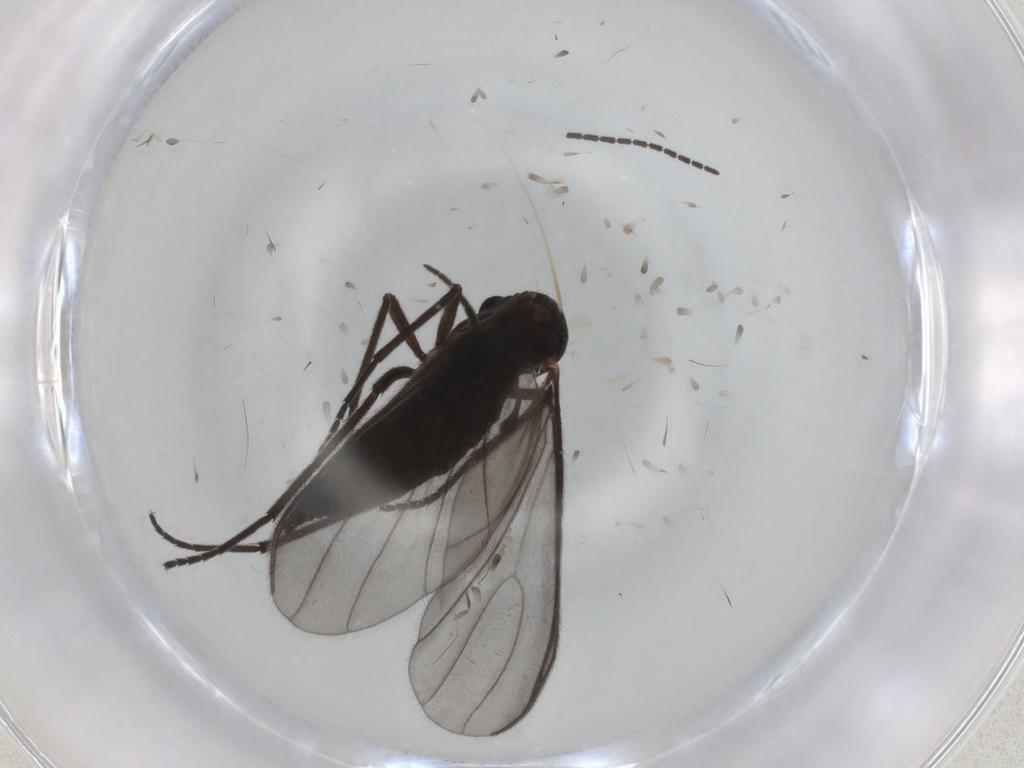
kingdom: Animalia
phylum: Arthropoda
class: Insecta
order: Diptera
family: Sciaridae
